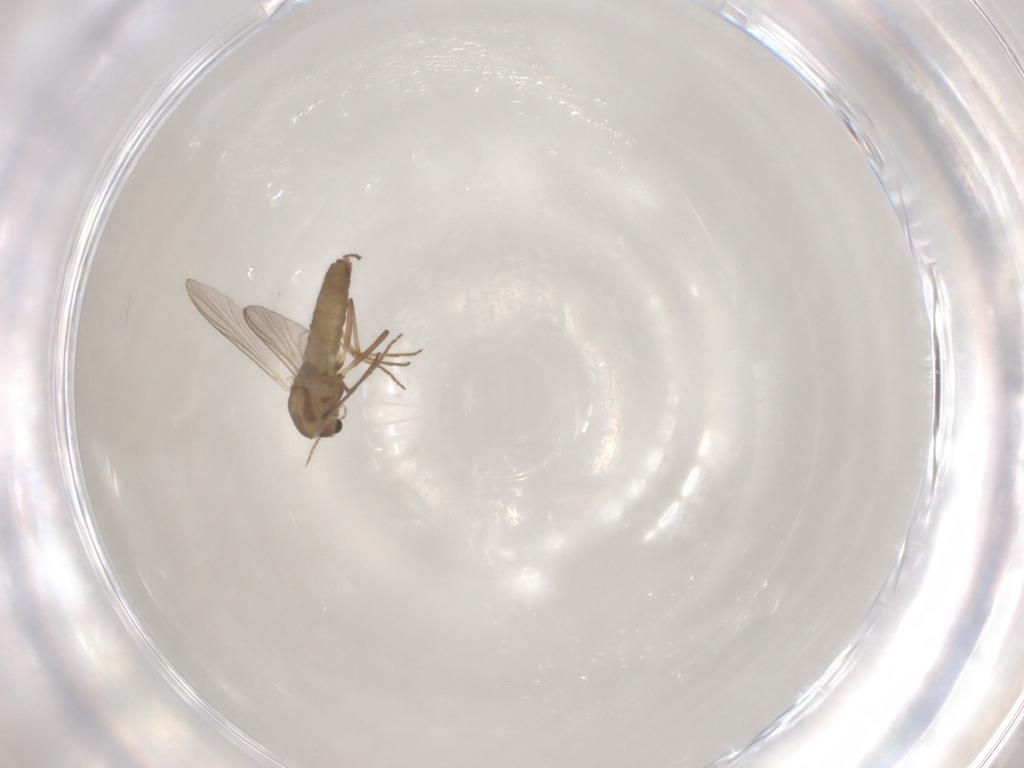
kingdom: Animalia
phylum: Arthropoda
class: Insecta
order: Diptera
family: Chironomidae
